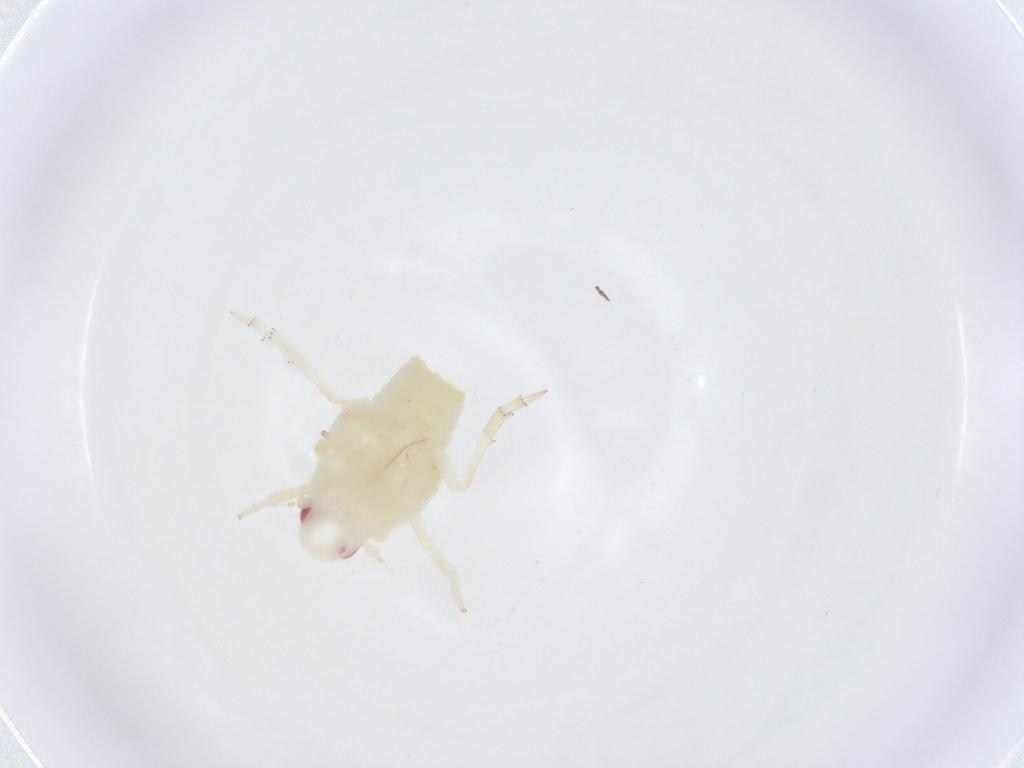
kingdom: Animalia
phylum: Arthropoda
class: Insecta
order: Hemiptera
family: Flatidae
